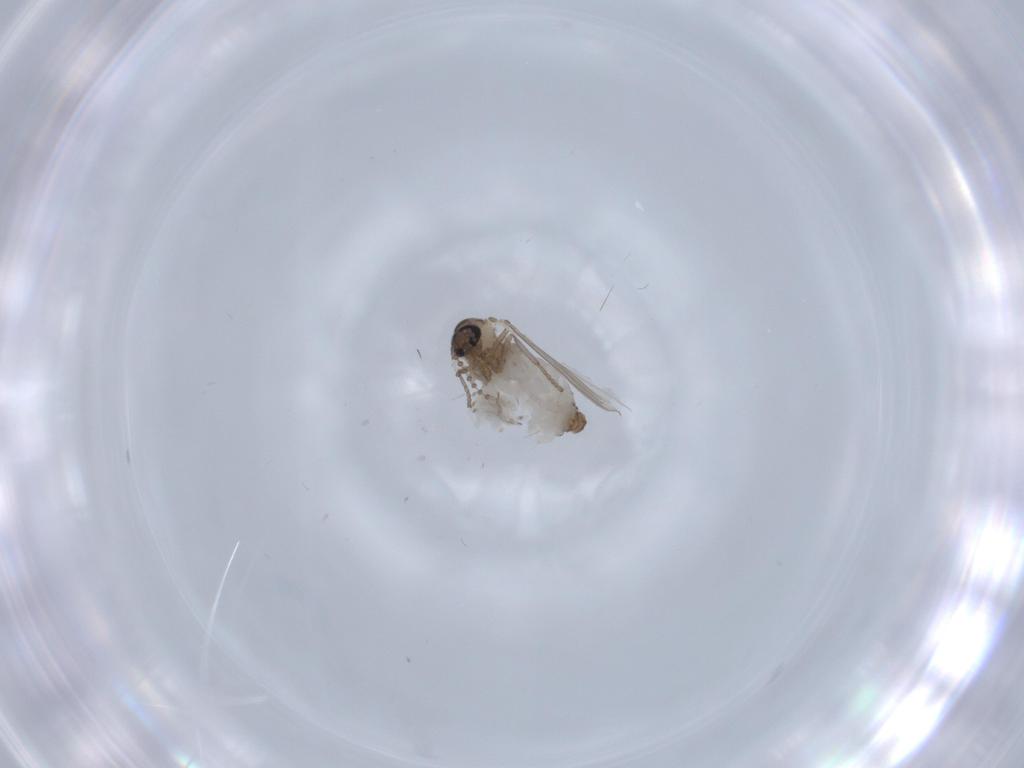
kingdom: Animalia
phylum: Arthropoda
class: Insecta
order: Diptera
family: Psychodidae
